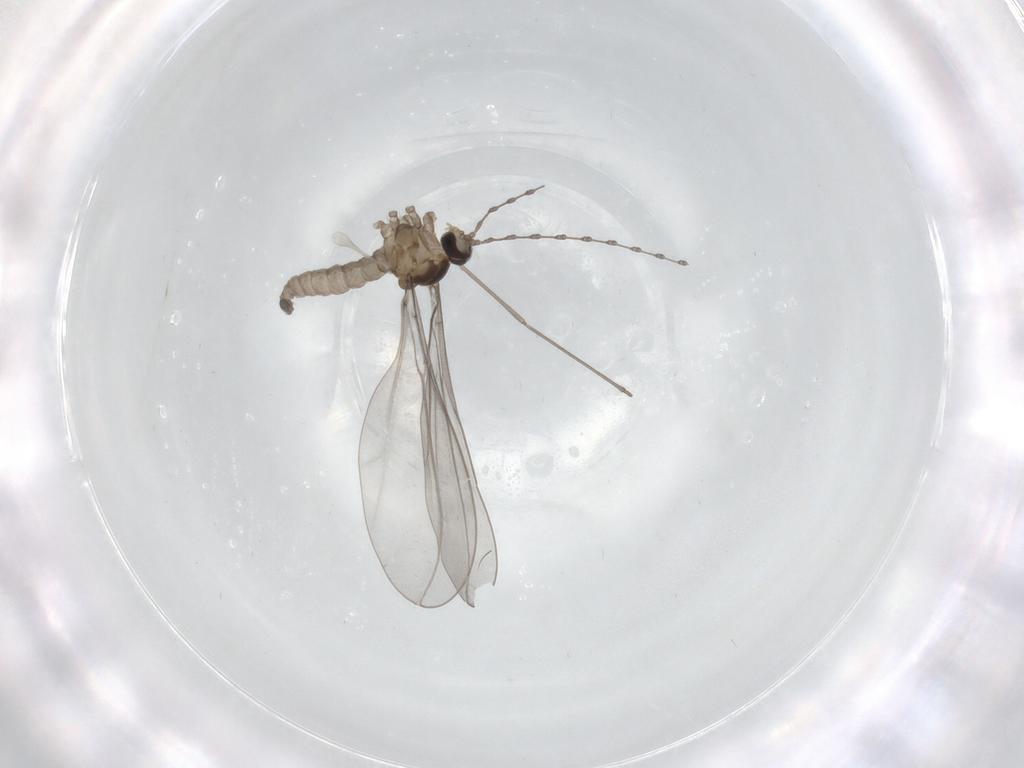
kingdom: Animalia
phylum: Arthropoda
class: Insecta
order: Diptera
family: Cecidomyiidae
